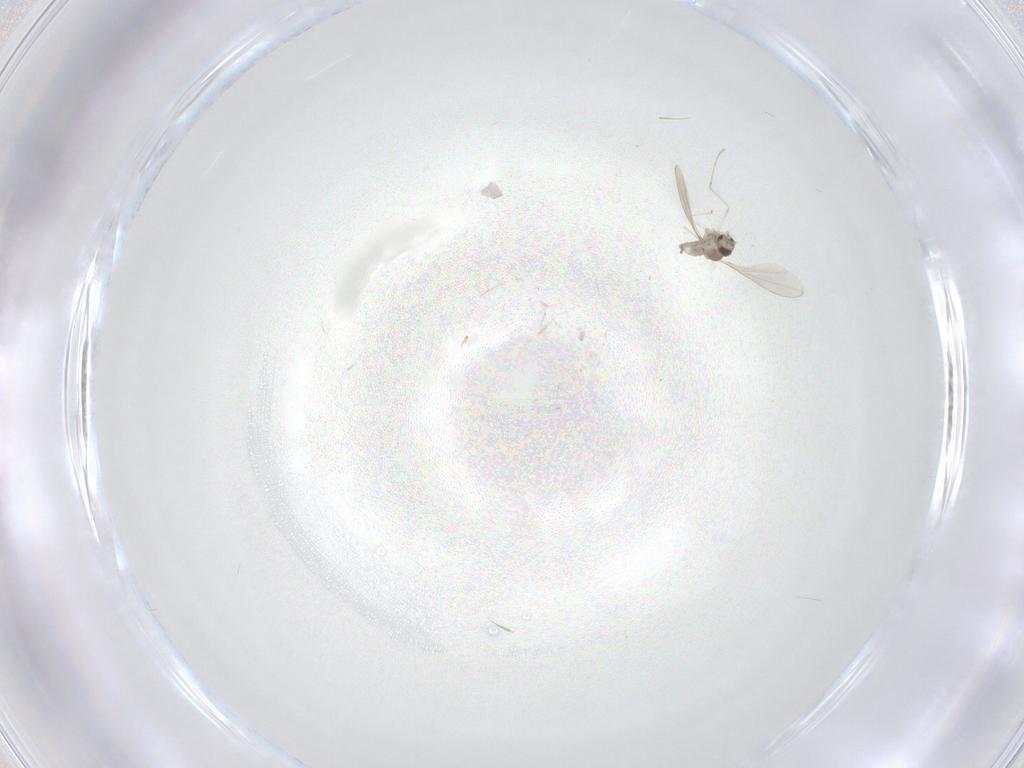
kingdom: Animalia
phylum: Arthropoda
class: Insecta
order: Diptera
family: Cecidomyiidae
